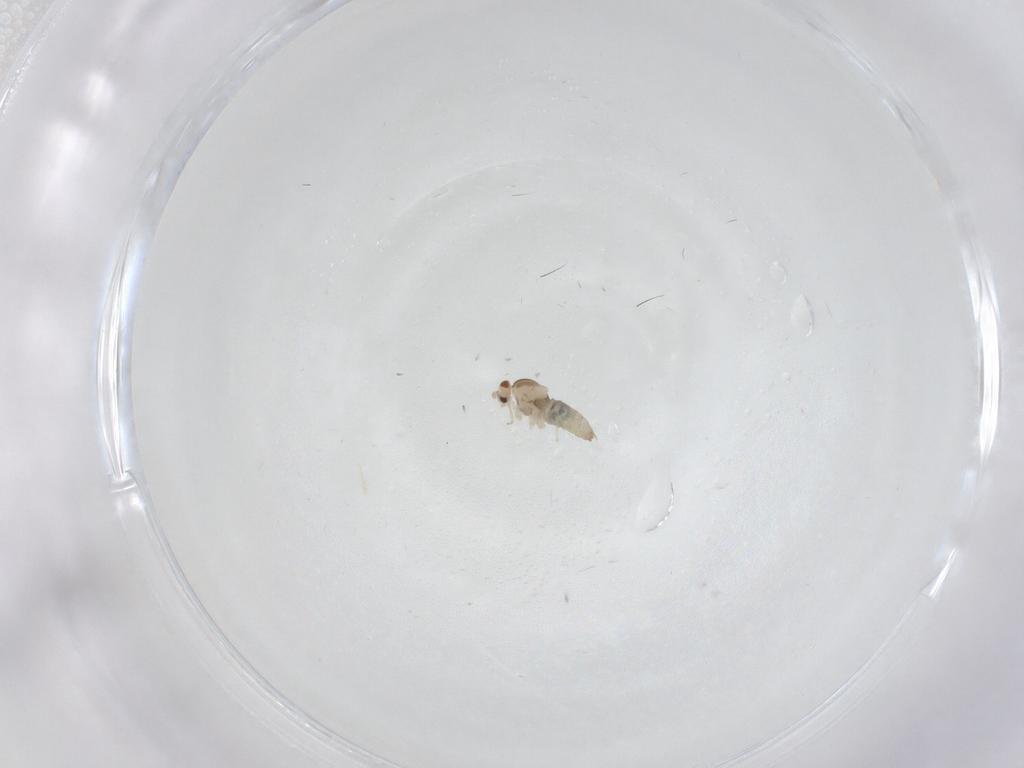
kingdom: Animalia
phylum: Arthropoda
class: Insecta
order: Diptera
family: Cecidomyiidae
